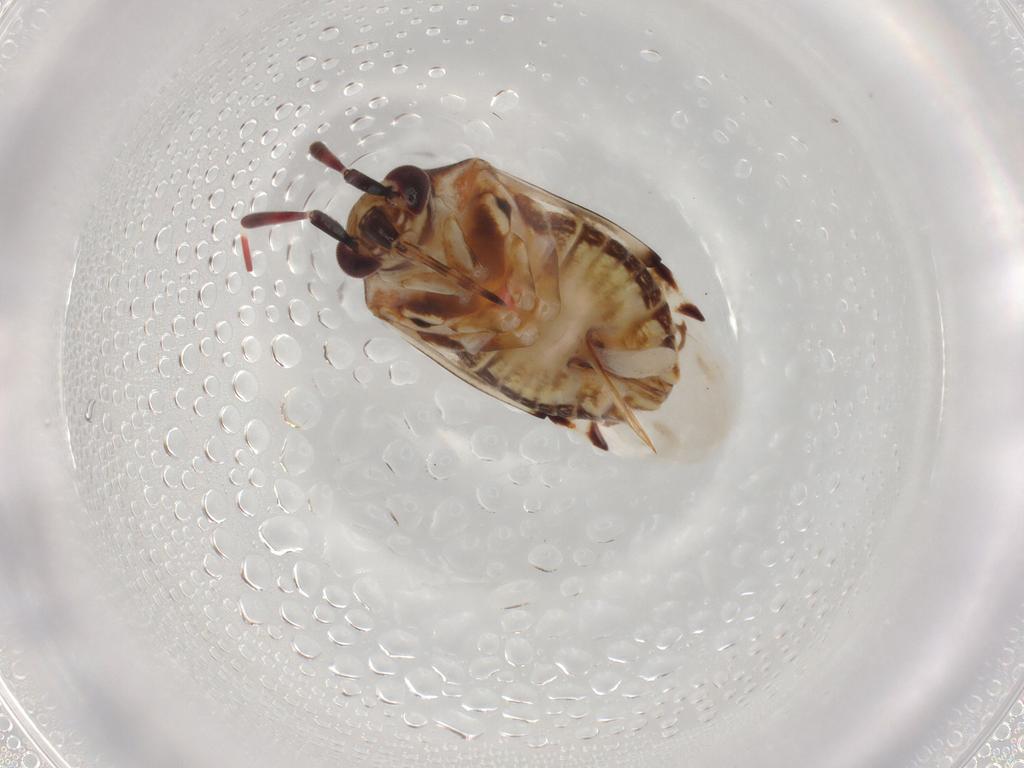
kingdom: Animalia
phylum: Arthropoda
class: Insecta
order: Hemiptera
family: Miridae
